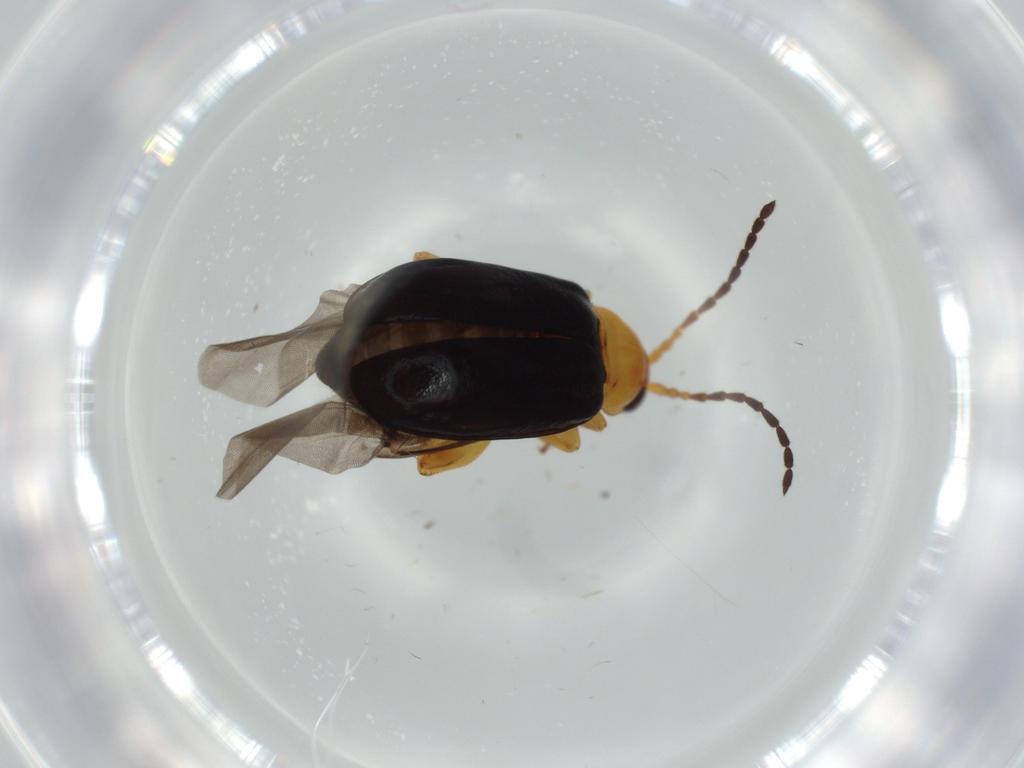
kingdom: Animalia
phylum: Arthropoda
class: Insecta
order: Coleoptera
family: Chrysomelidae
